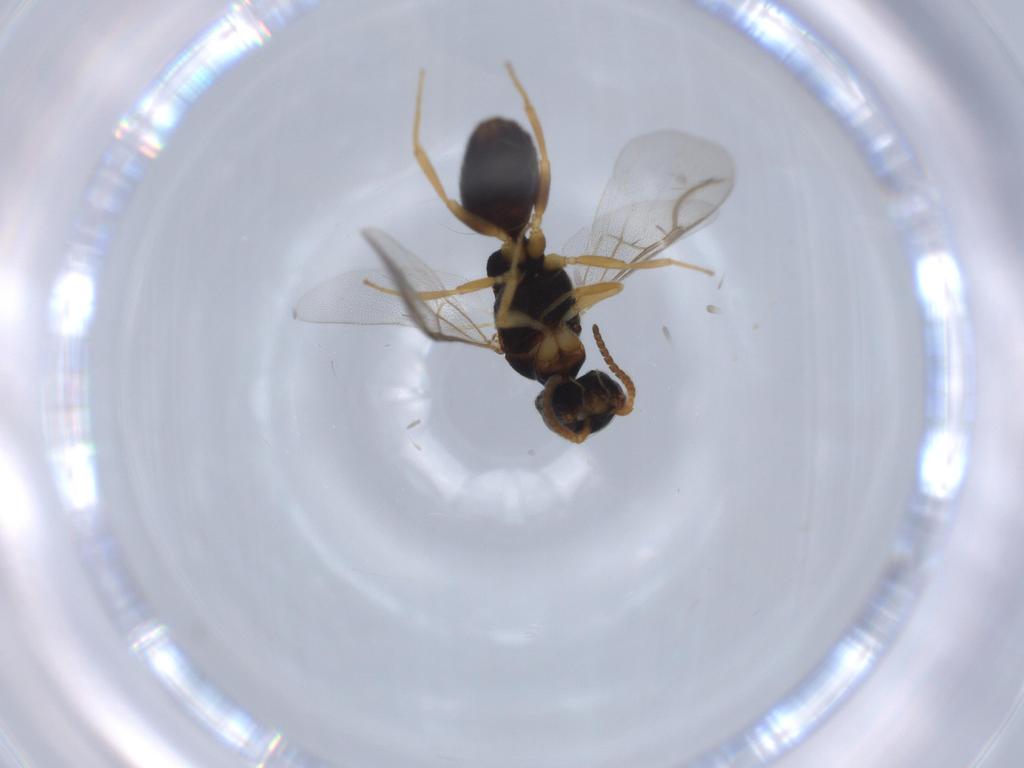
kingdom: Animalia
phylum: Arthropoda
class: Insecta
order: Hymenoptera
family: Bethylidae
